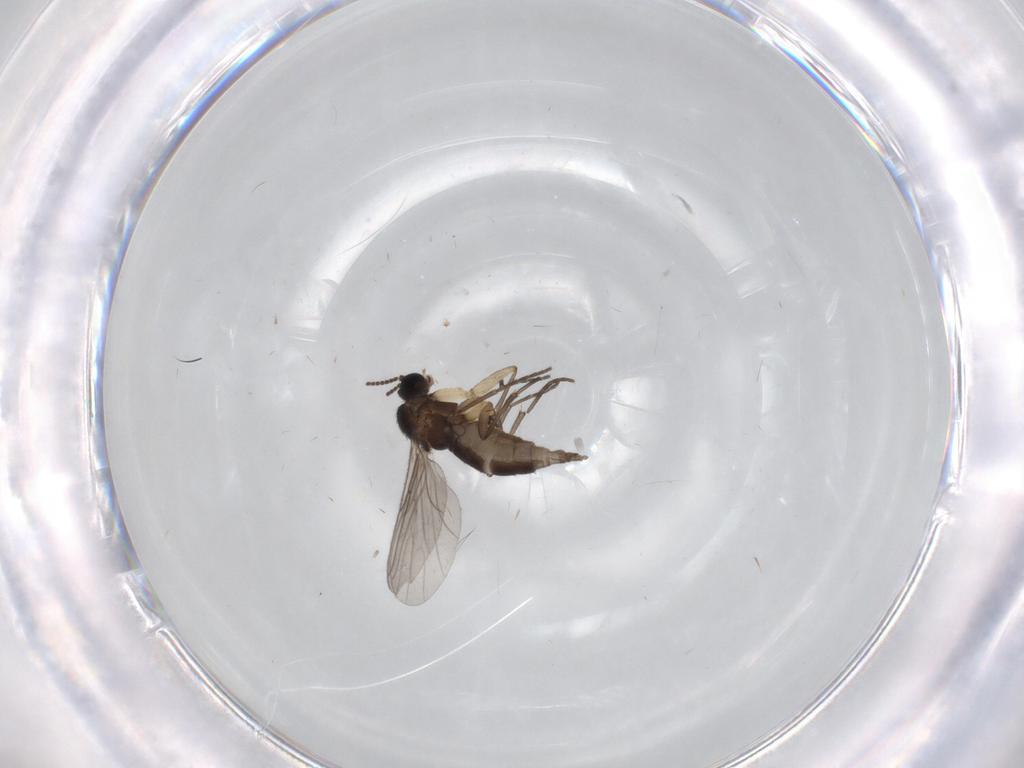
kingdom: Animalia
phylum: Arthropoda
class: Insecta
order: Diptera
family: Sciaridae
